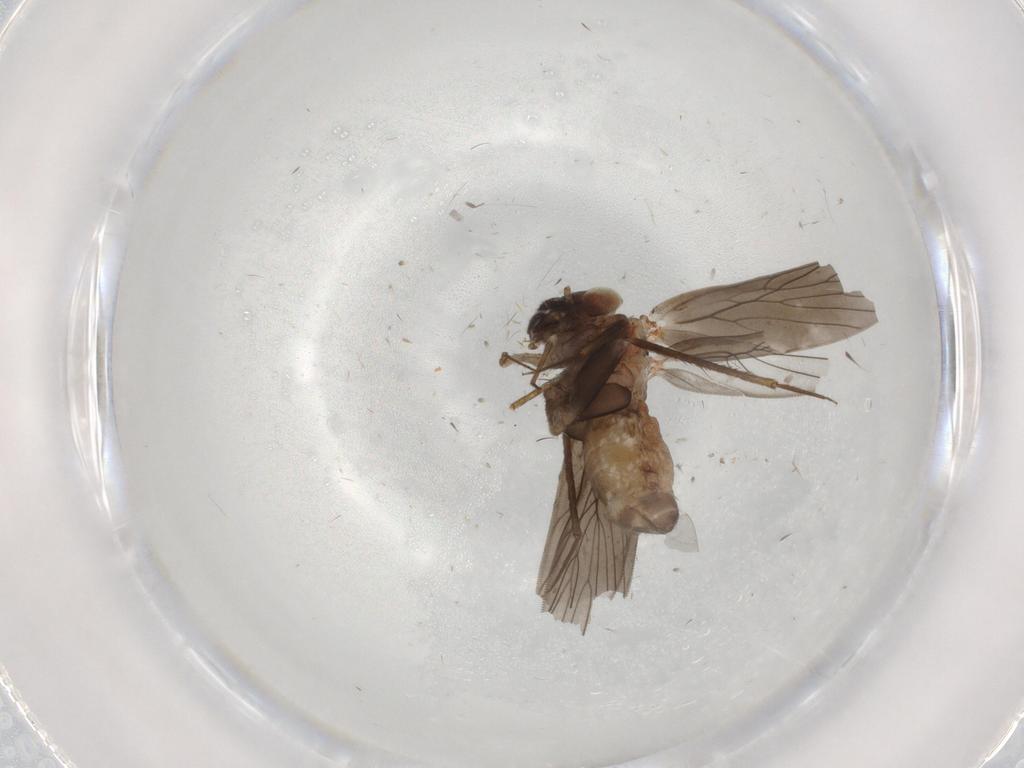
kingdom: Animalia
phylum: Arthropoda
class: Insecta
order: Psocodea
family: Lepidopsocidae
